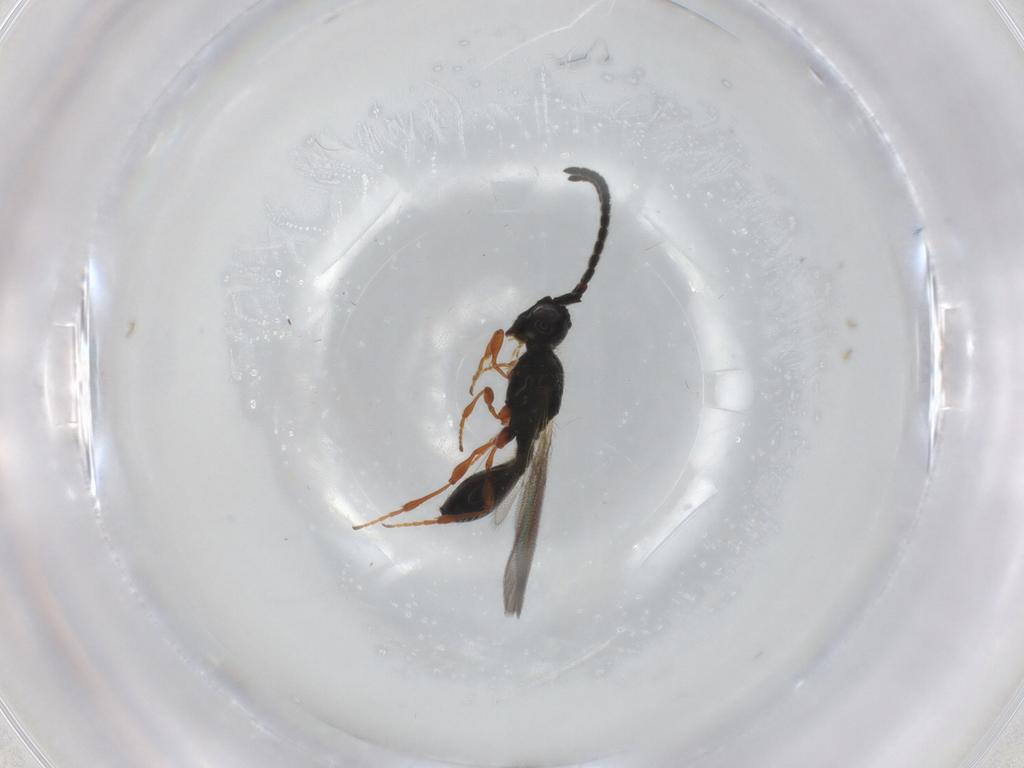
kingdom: Animalia
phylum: Arthropoda
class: Insecta
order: Hymenoptera
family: Diapriidae
